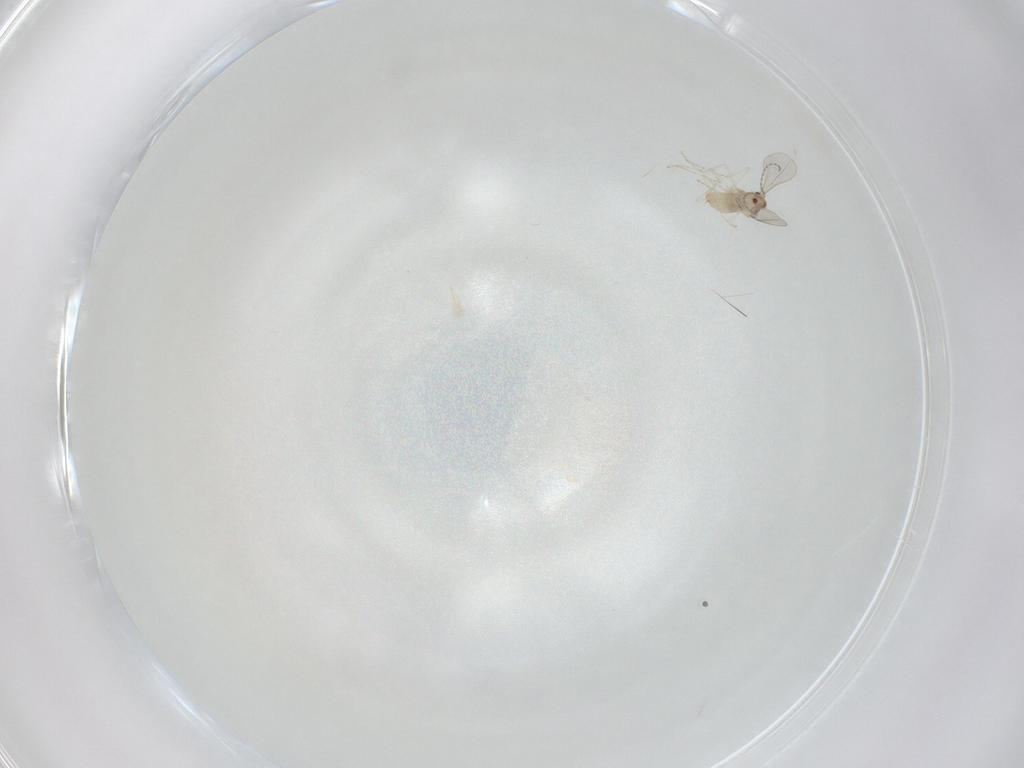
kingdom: Animalia
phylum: Arthropoda
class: Insecta
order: Diptera
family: Cecidomyiidae
